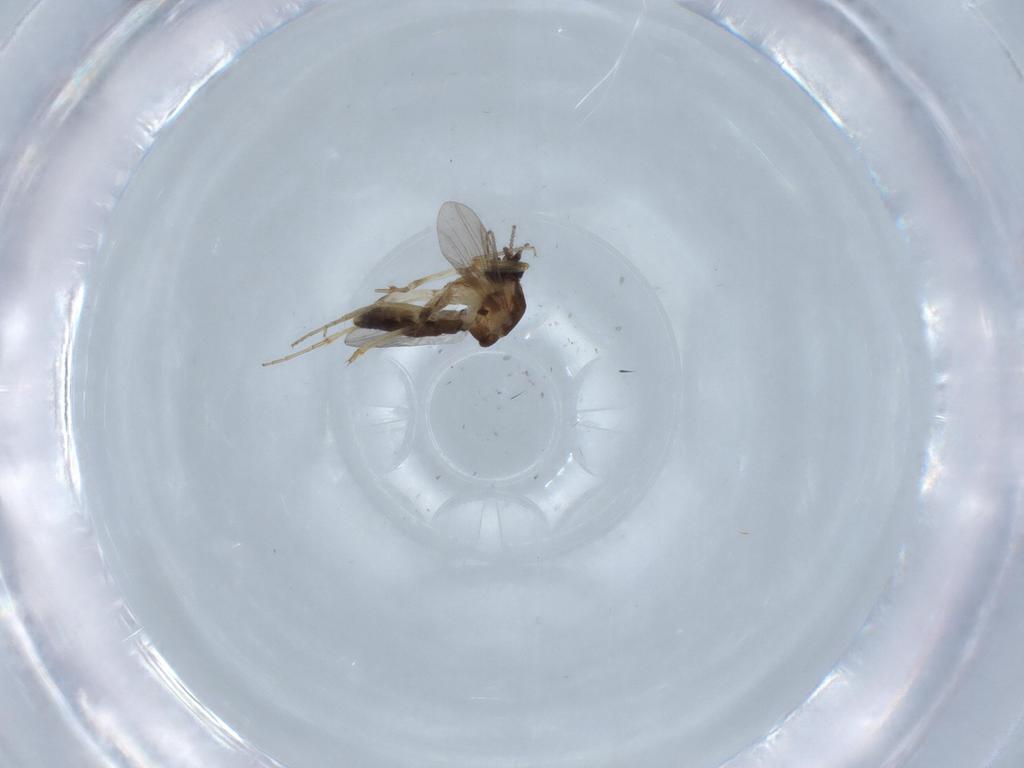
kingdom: Animalia
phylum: Arthropoda
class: Insecta
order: Diptera
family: Ceratopogonidae
